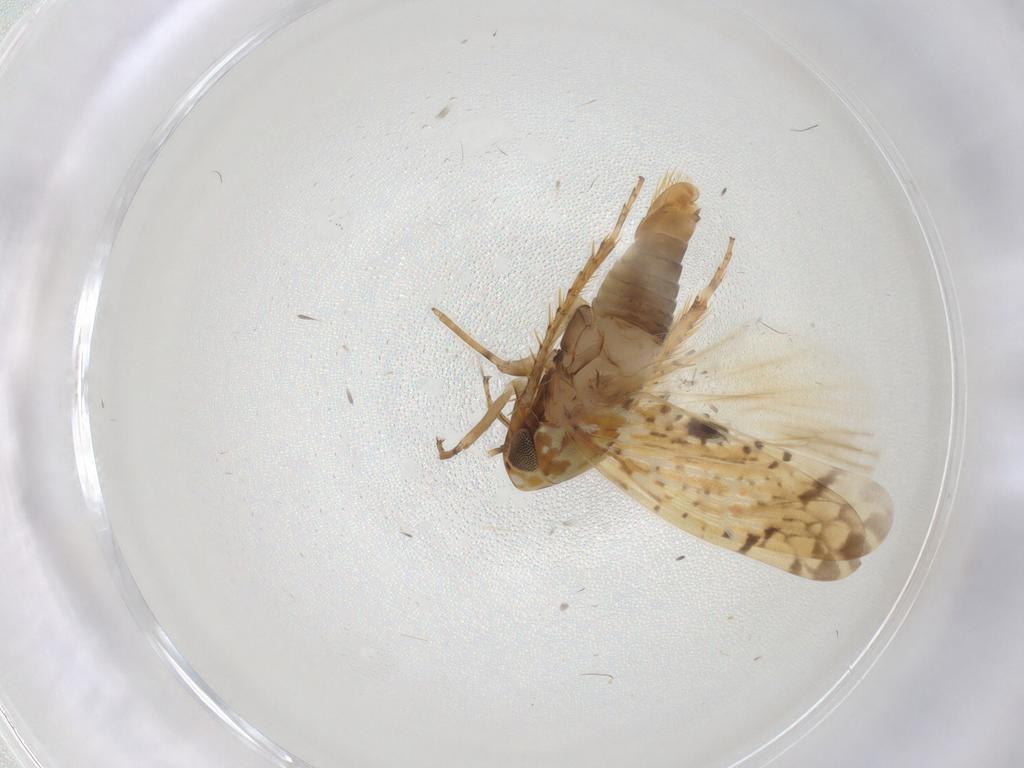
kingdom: Animalia
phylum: Arthropoda
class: Insecta
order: Hemiptera
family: Cicadellidae
